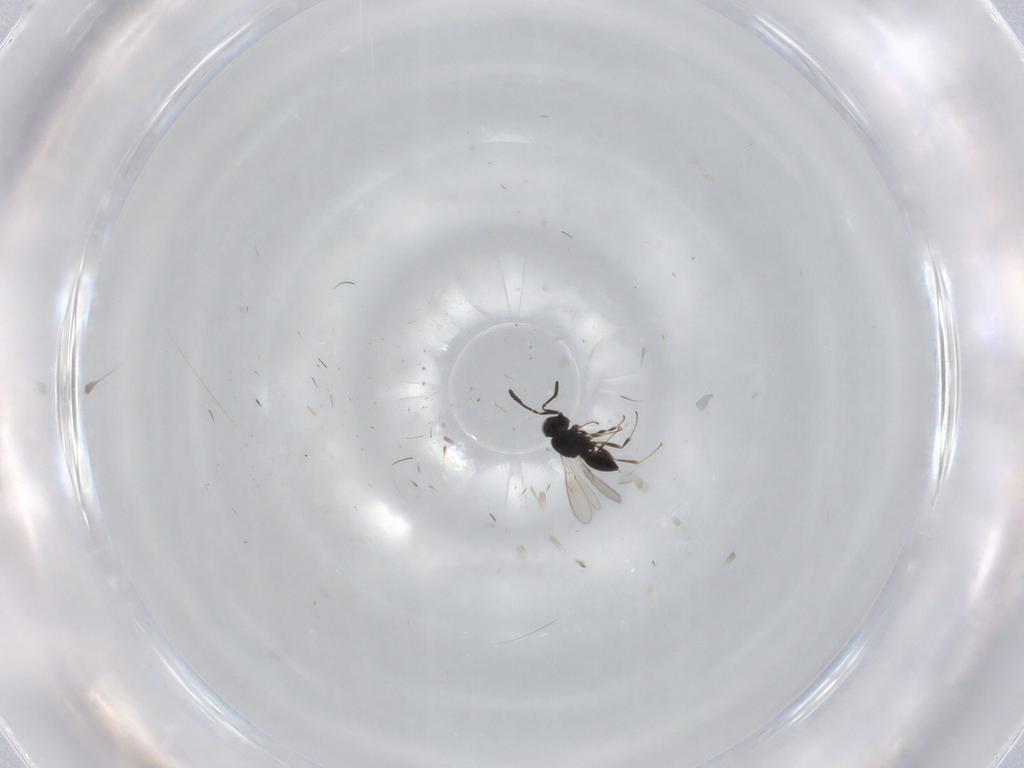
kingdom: Animalia
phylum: Arthropoda
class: Insecta
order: Hymenoptera
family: Scelionidae
